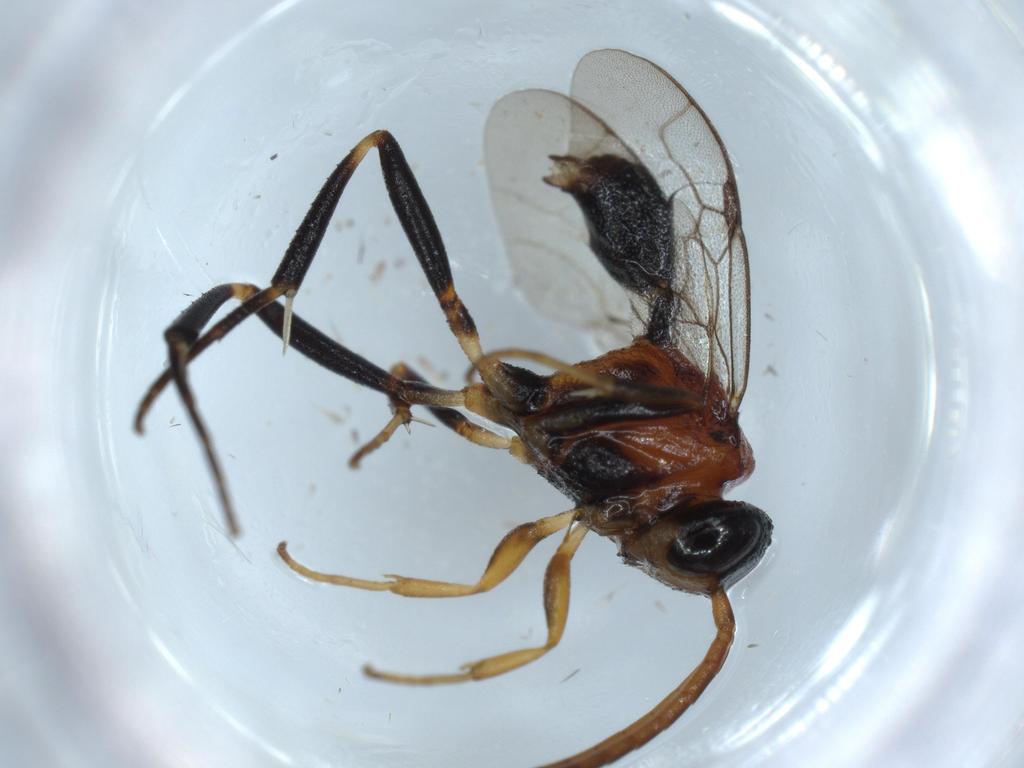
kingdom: Animalia
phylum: Arthropoda
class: Insecta
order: Hymenoptera
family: Evaniidae
